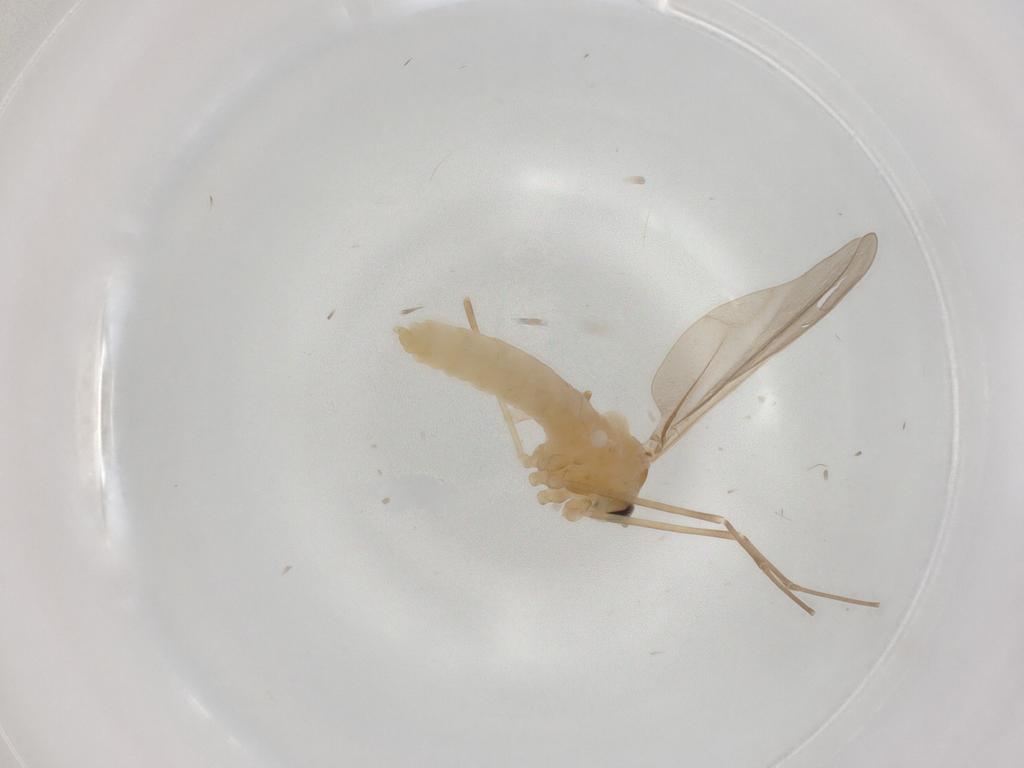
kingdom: Animalia
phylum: Arthropoda
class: Insecta
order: Diptera
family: Cecidomyiidae
